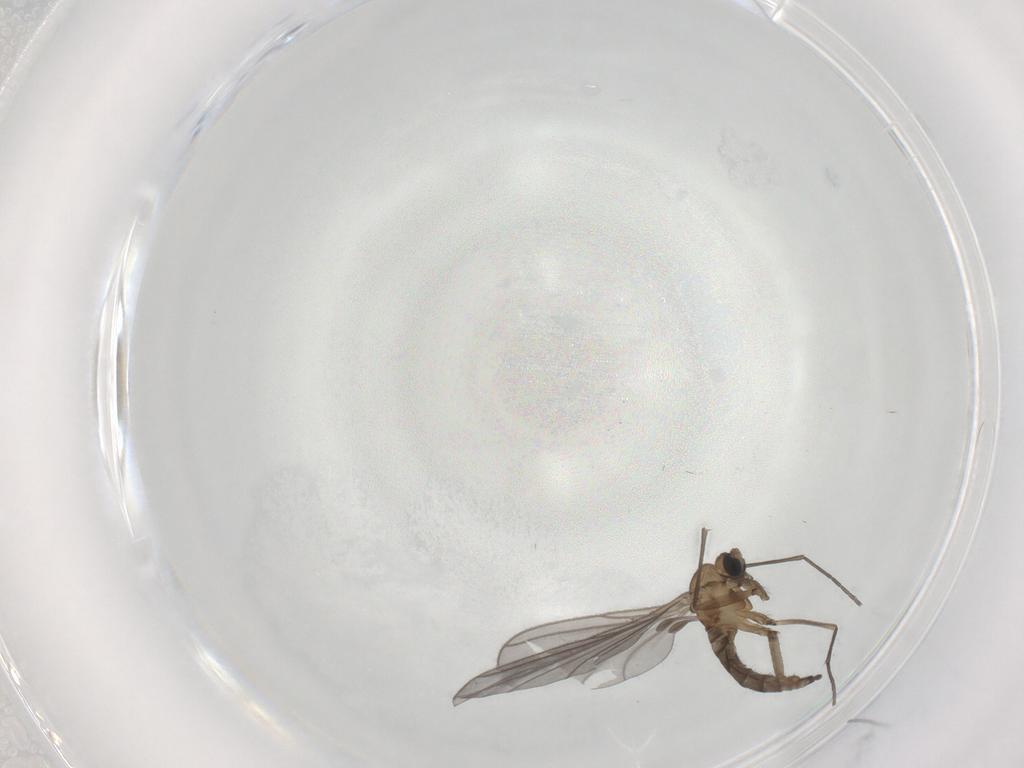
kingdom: Animalia
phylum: Arthropoda
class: Insecta
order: Diptera
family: Sciaridae
